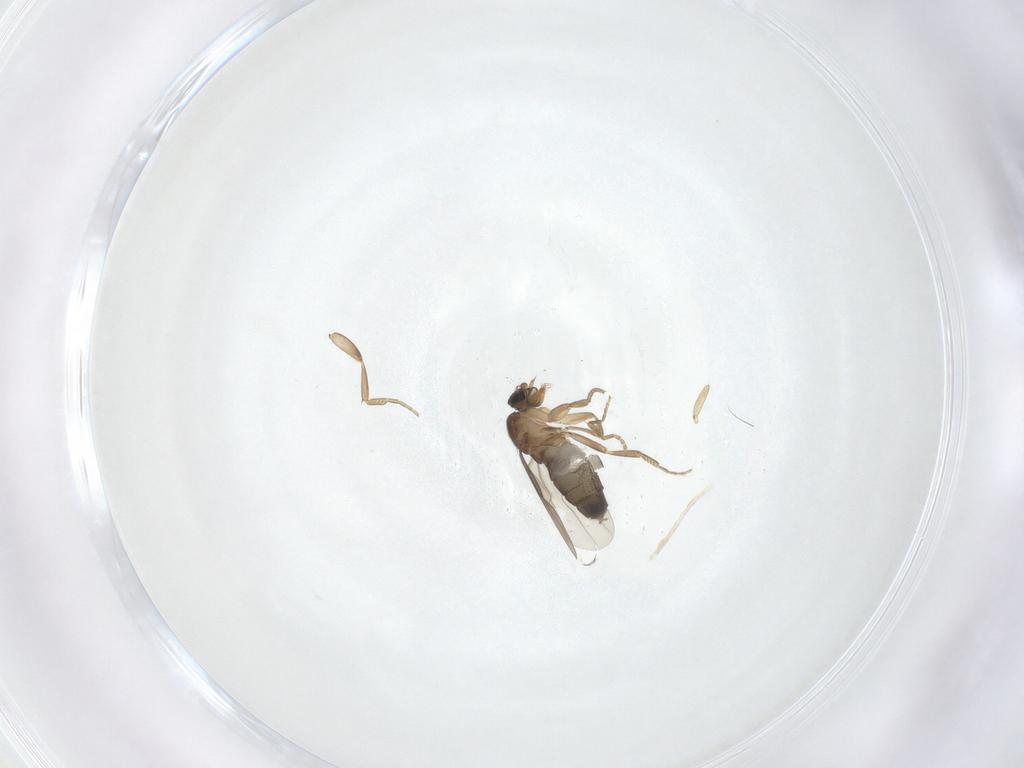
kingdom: Animalia
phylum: Arthropoda
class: Insecta
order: Diptera
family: Phoridae
